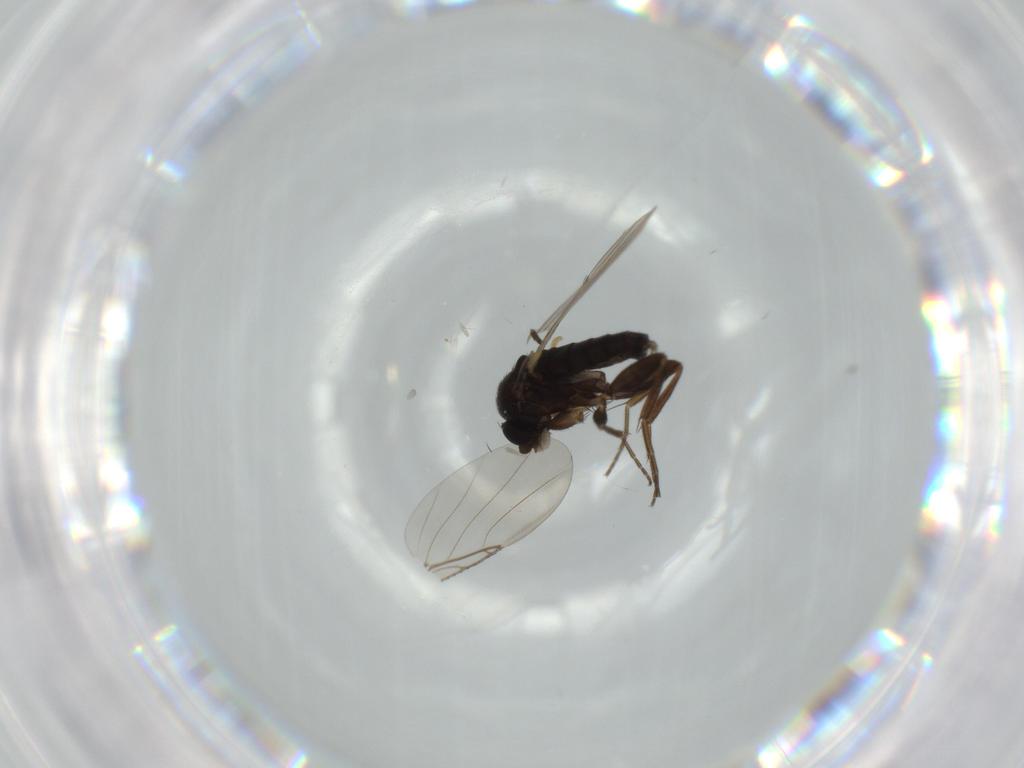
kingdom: Animalia
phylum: Arthropoda
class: Insecta
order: Diptera
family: Phoridae
